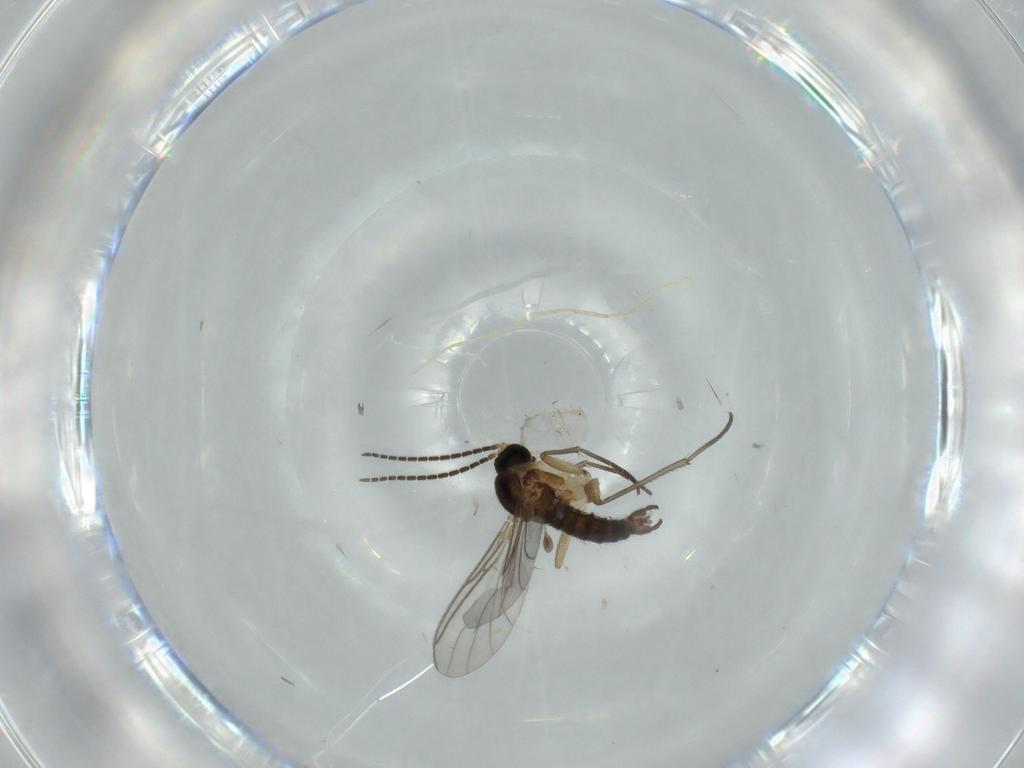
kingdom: Animalia
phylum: Arthropoda
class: Insecta
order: Diptera
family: Sciaridae
